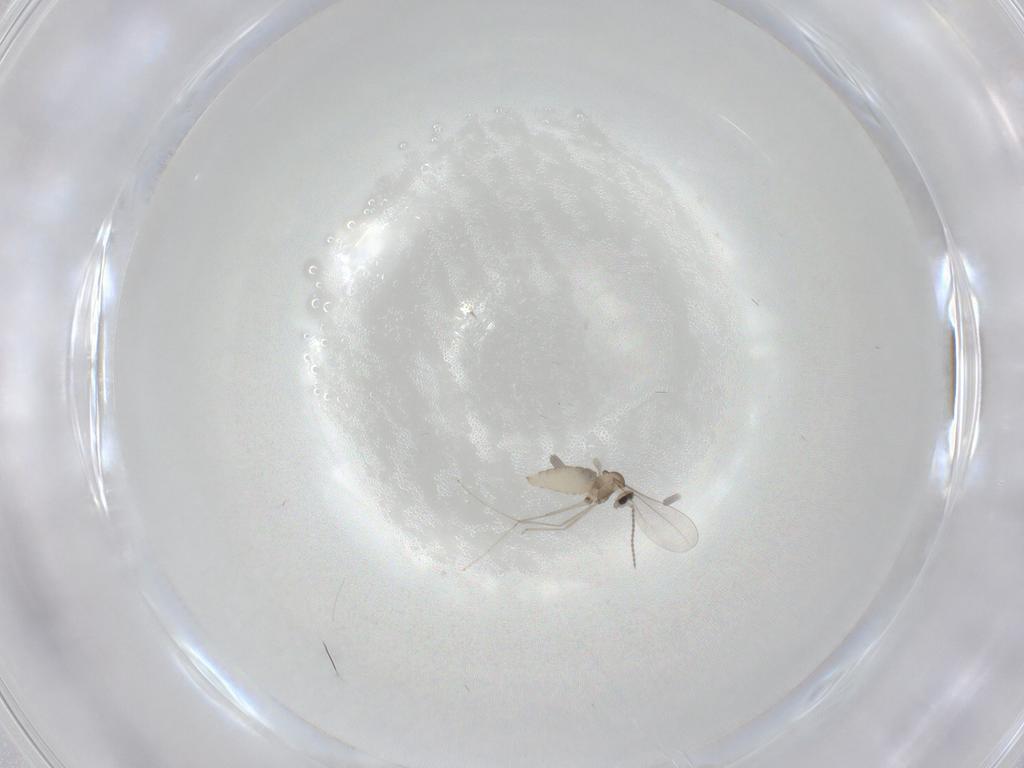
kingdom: Animalia
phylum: Arthropoda
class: Insecta
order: Diptera
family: Cecidomyiidae
